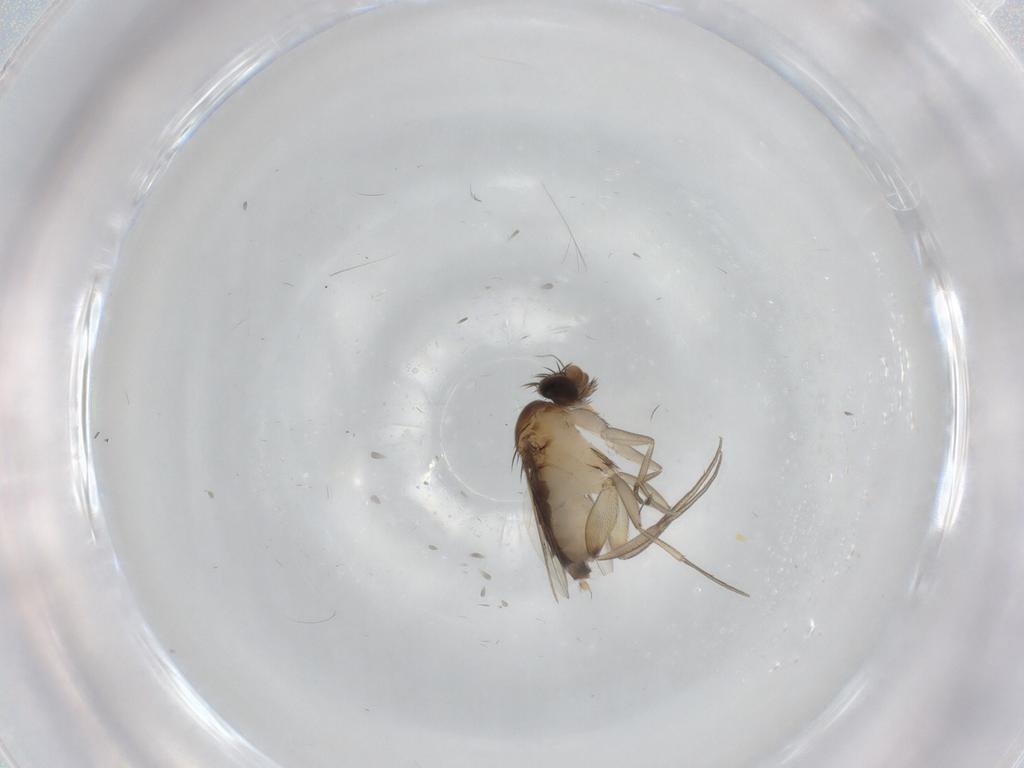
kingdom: Animalia
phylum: Arthropoda
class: Insecta
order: Diptera
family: Phoridae
